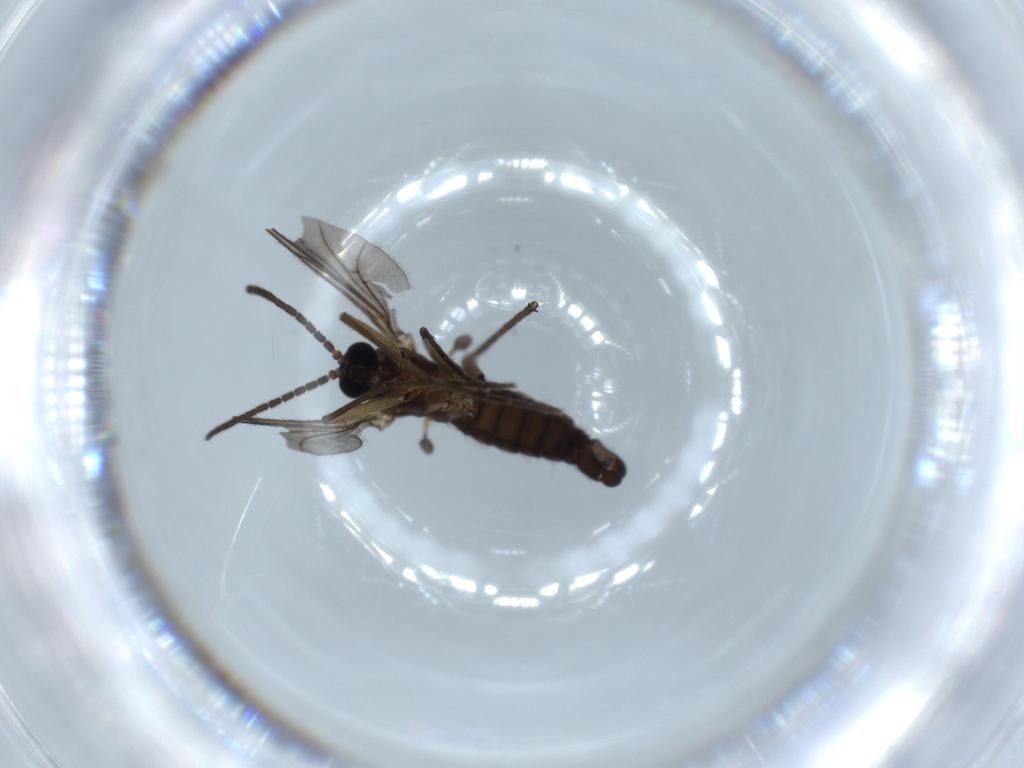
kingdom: Animalia
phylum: Arthropoda
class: Insecta
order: Diptera
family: Sciaridae
